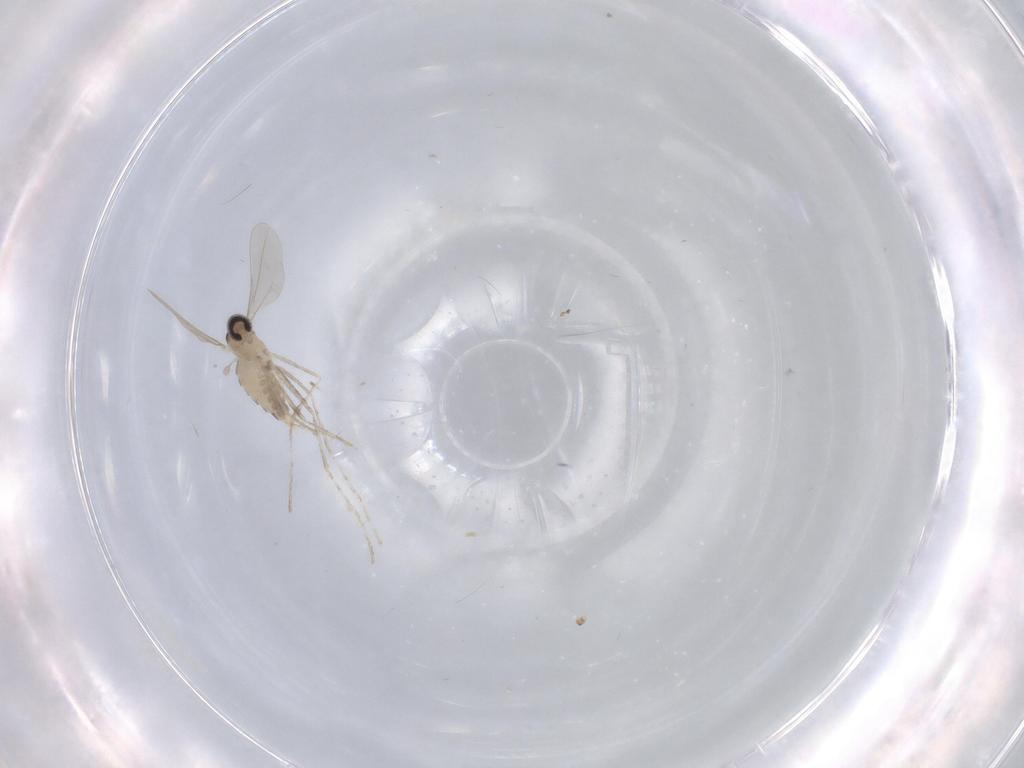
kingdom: Animalia
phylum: Arthropoda
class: Insecta
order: Diptera
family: Cecidomyiidae
